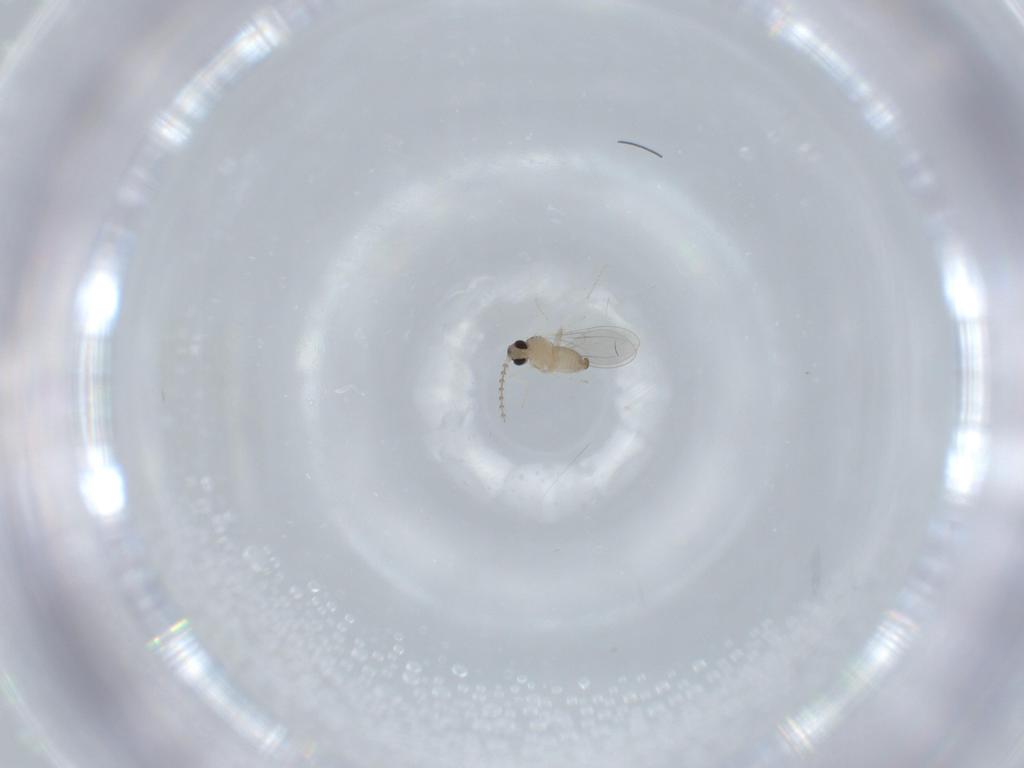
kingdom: Animalia
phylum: Arthropoda
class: Insecta
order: Diptera
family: Cecidomyiidae
